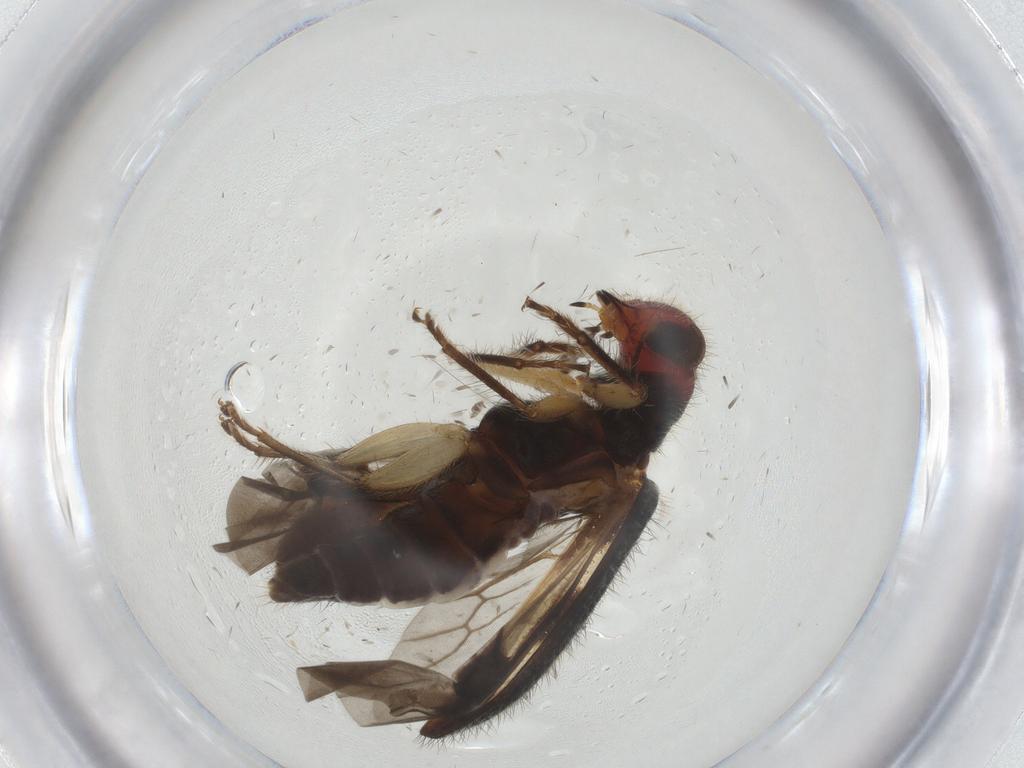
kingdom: Animalia
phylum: Arthropoda
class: Insecta
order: Coleoptera
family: Cleridae
